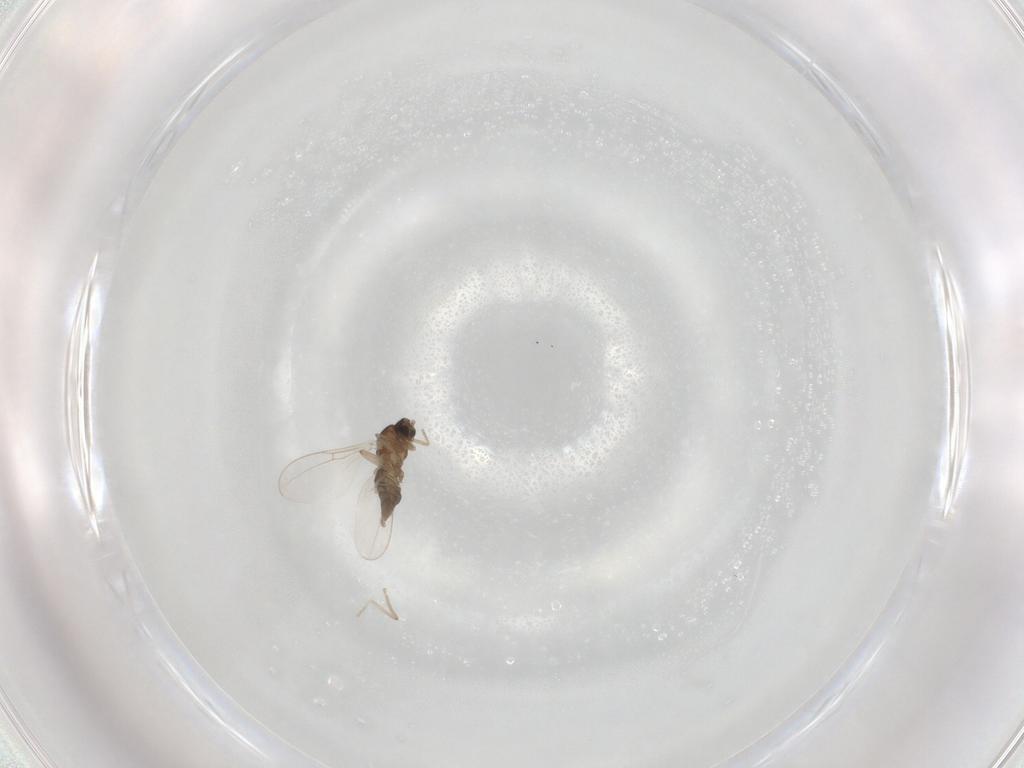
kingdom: Animalia
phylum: Arthropoda
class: Insecta
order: Diptera
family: Cecidomyiidae
